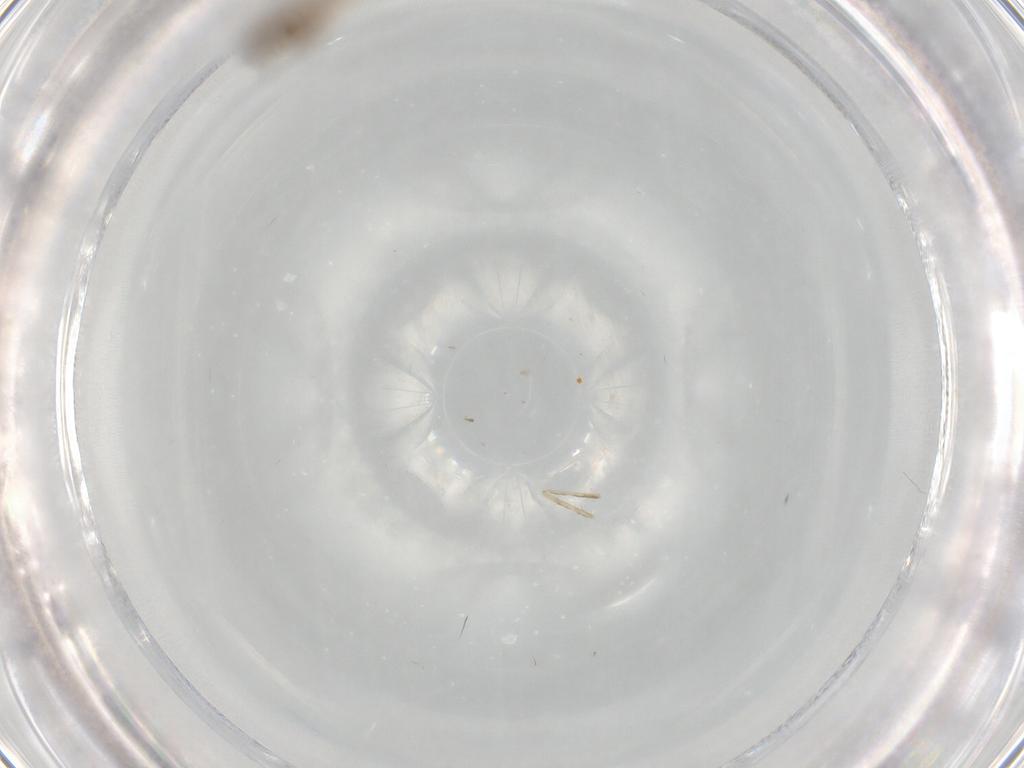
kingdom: Animalia
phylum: Arthropoda
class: Insecta
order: Diptera
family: Cecidomyiidae
